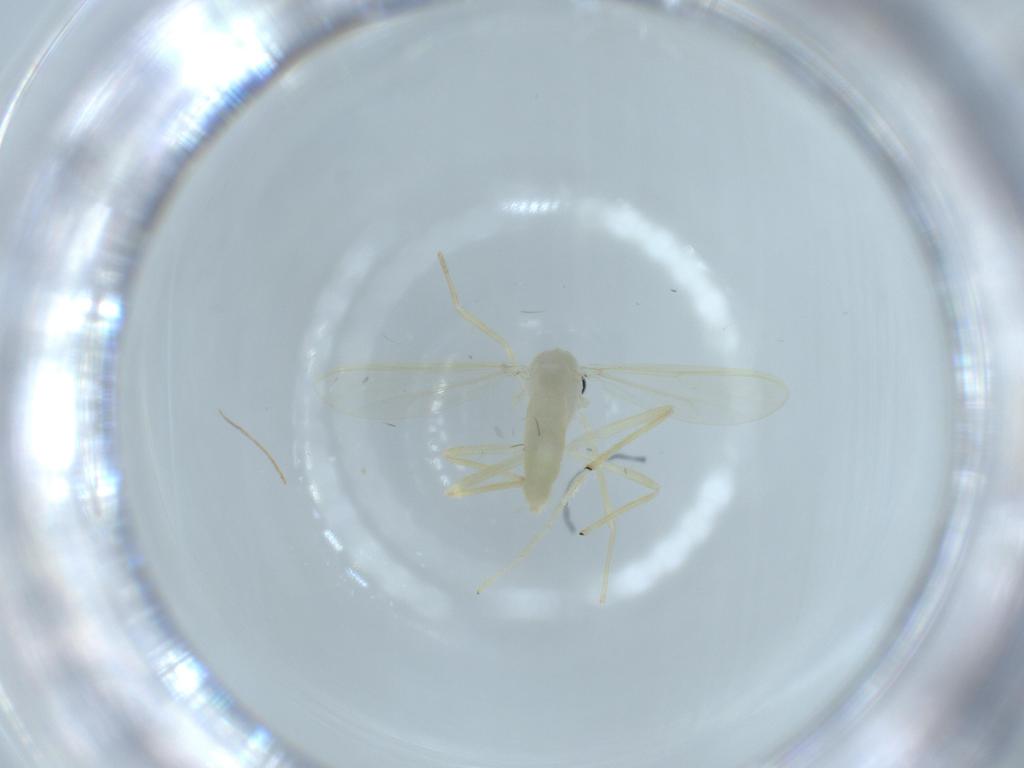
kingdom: Animalia
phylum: Arthropoda
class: Insecta
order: Diptera
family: Chironomidae
